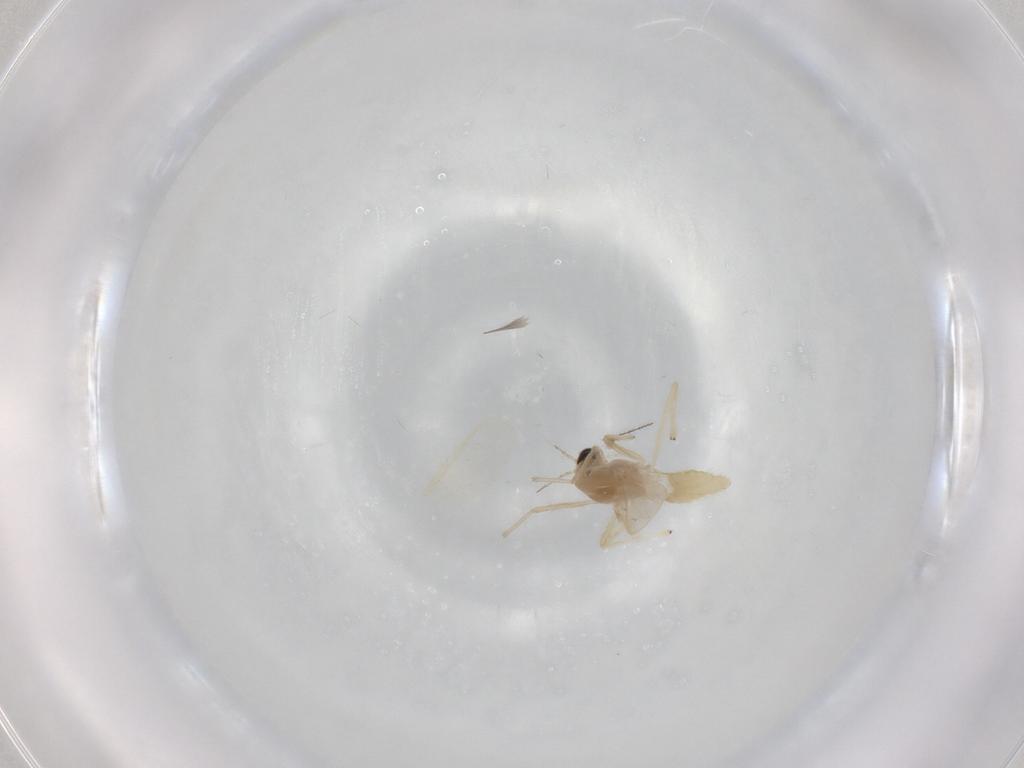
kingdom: Animalia
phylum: Arthropoda
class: Insecta
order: Diptera
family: Chironomidae
